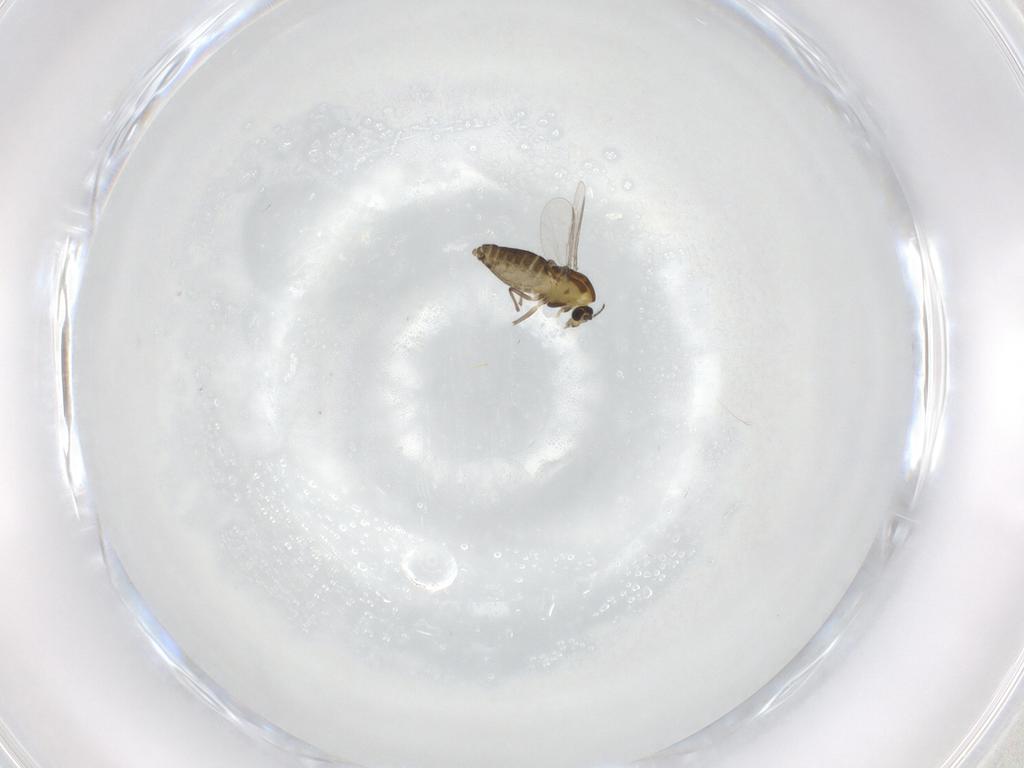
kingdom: Animalia
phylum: Arthropoda
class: Insecta
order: Diptera
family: Chironomidae
